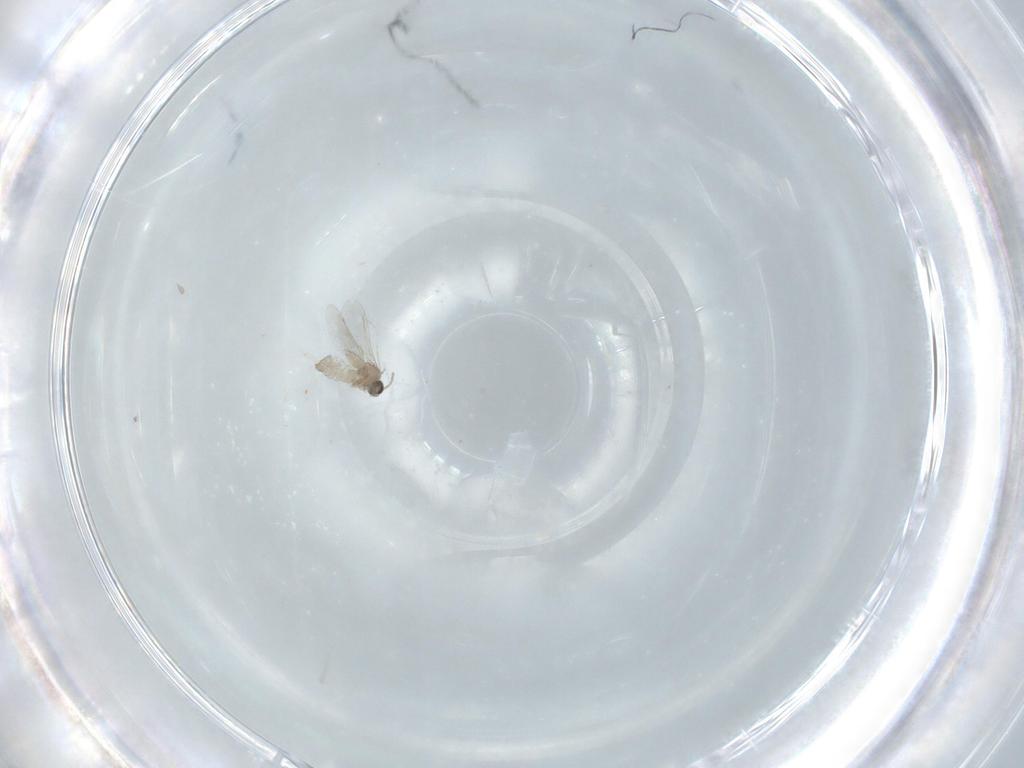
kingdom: Animalia
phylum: Arthropoda
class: Insecta
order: Diptera
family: Cecidomyiidae
